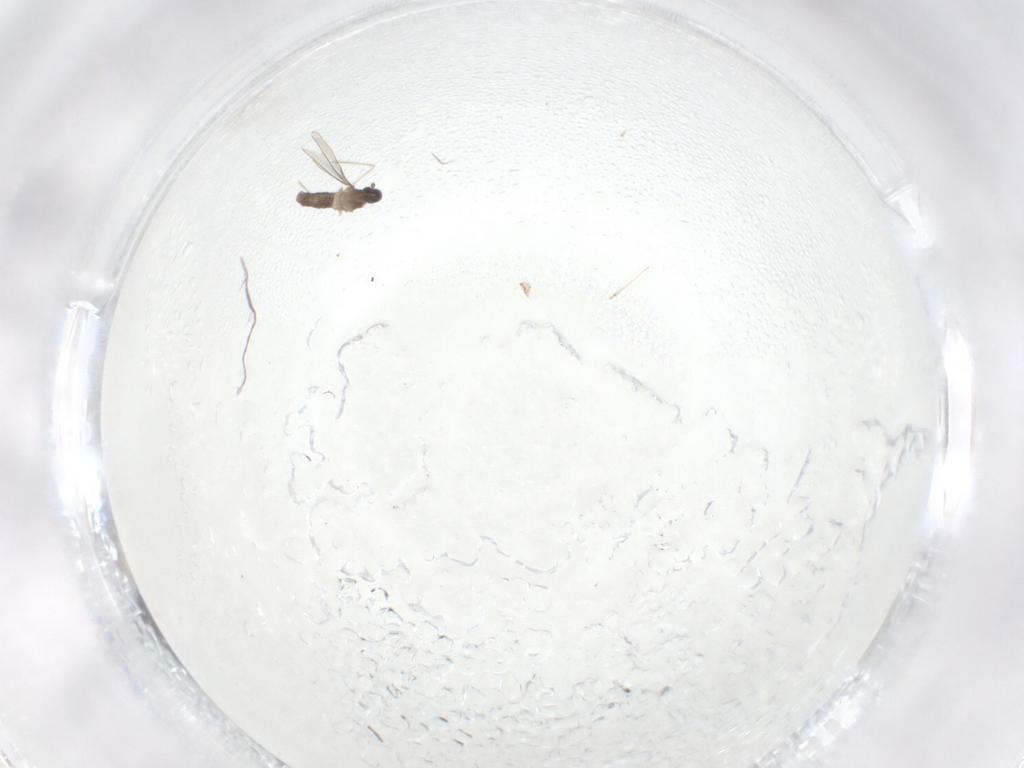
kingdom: Animalia
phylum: Arthropoda
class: Insecta
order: Diptera
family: Cecidomyiidae
